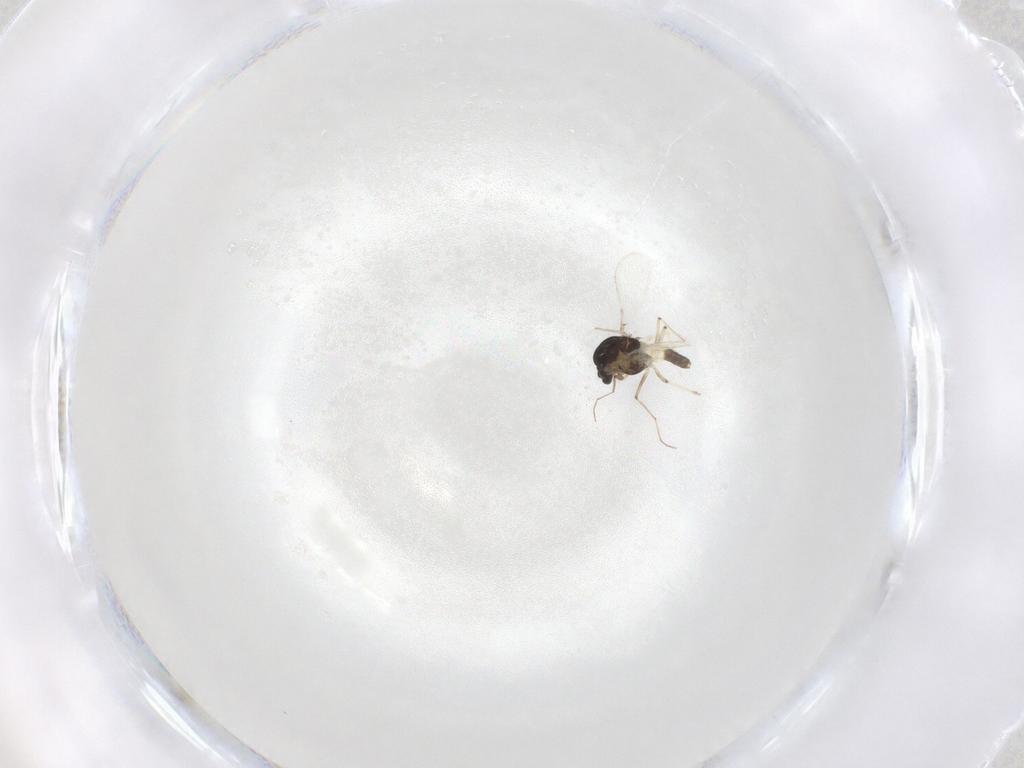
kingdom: Animalia
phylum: Arthropoda
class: Insecta
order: Diptera
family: Chironomidae
